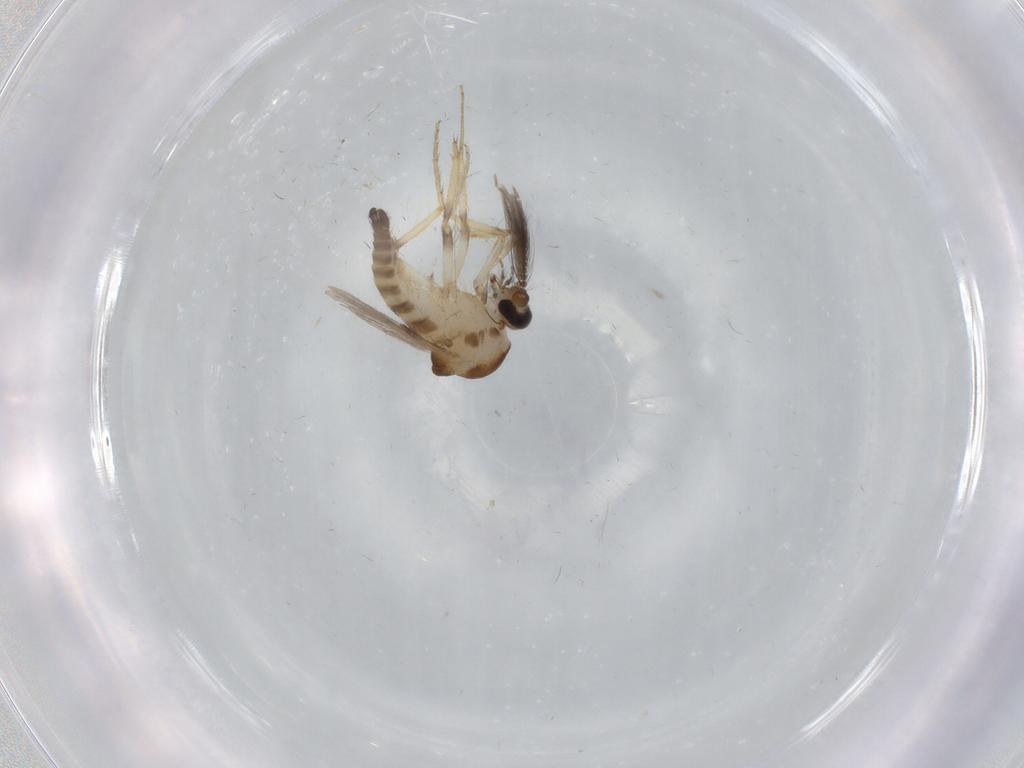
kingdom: Animalia
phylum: Arthropoda
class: Insecta
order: Diptera
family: Ceratopogonidae
